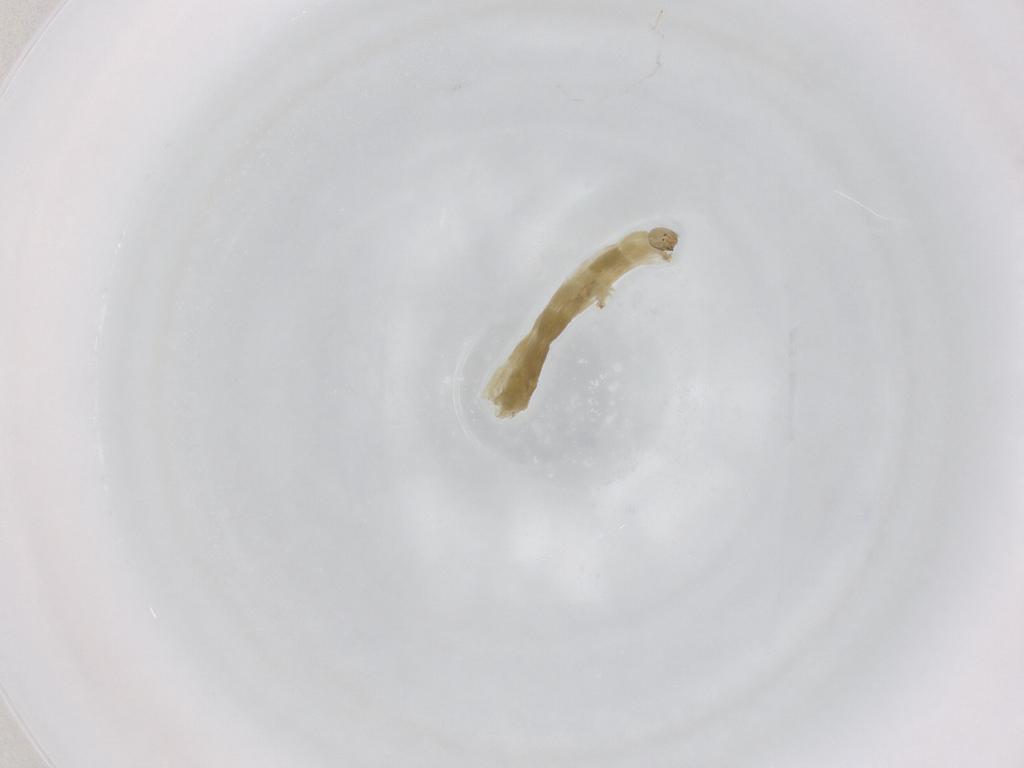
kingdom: Animalia
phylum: Arthropoda
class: Insecta
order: Diptera
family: Chironomidae
